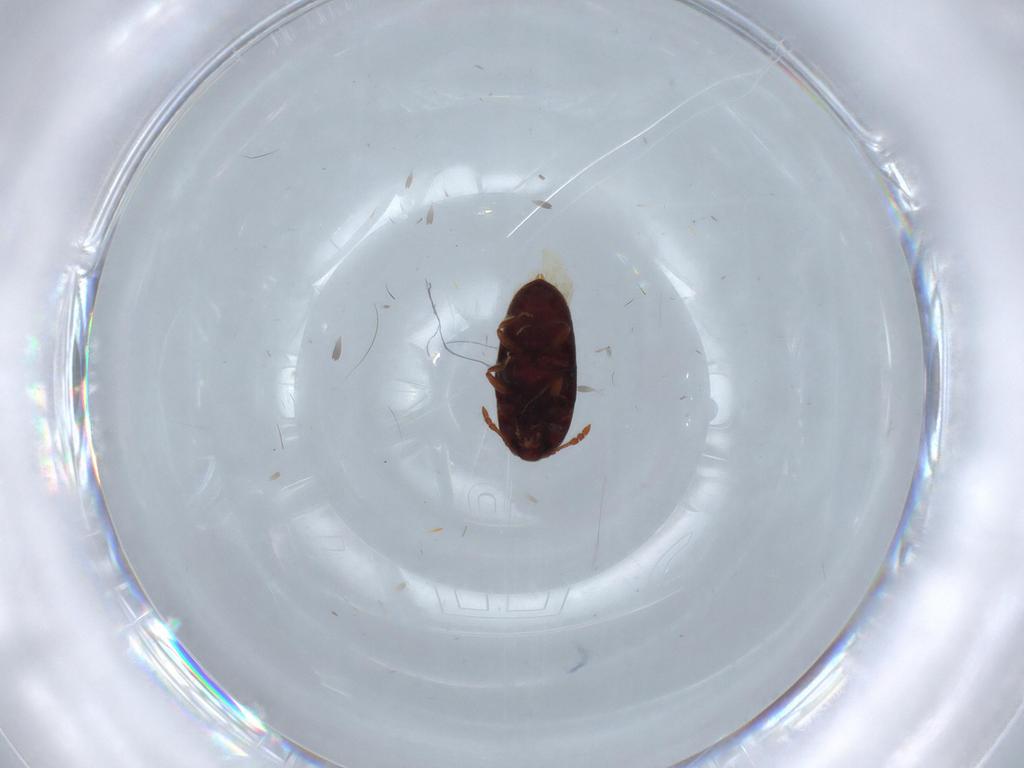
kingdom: Animalia
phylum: Arthropoda
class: Insecta
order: Coleoptera
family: Throscidae
